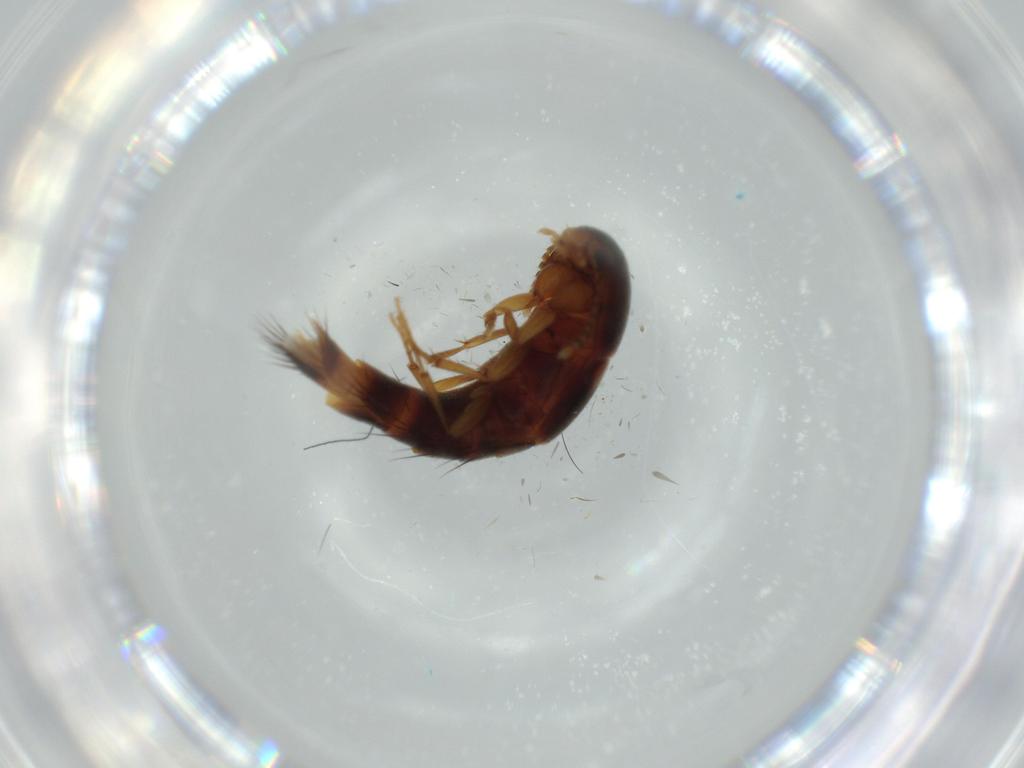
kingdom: Animalia
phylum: Arthropoda
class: Insecta
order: Coleoptera
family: Staphylinidae
